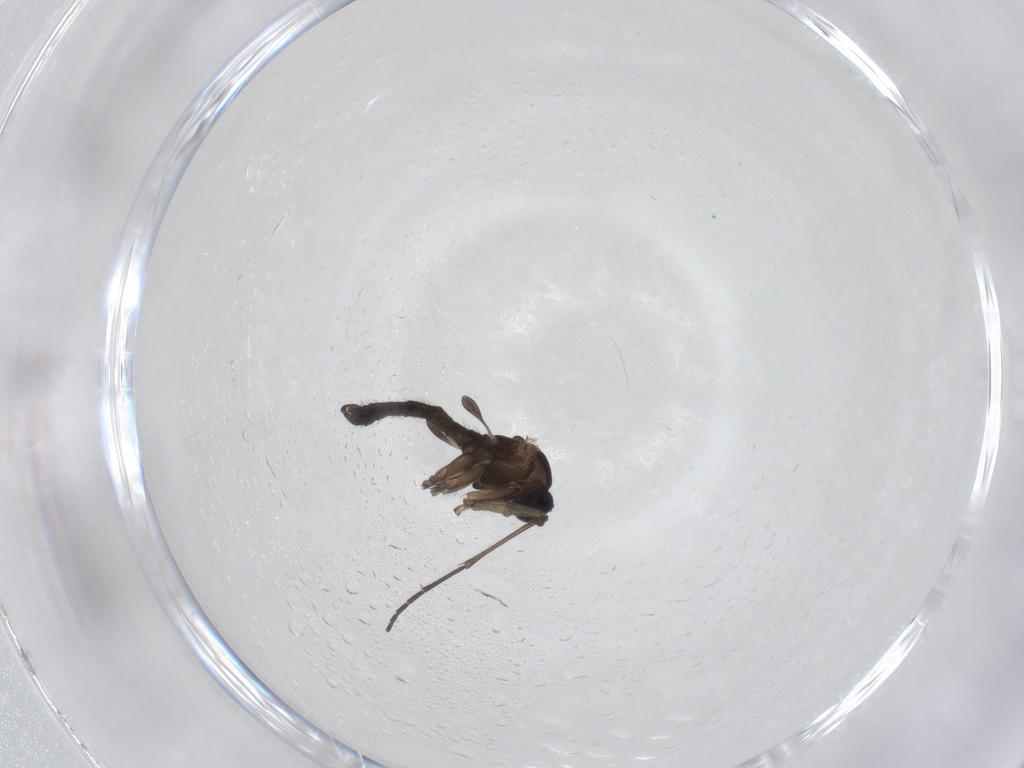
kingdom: Animalia
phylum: Arthropoda
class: Insecta
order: Diptera
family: Sciaridae
